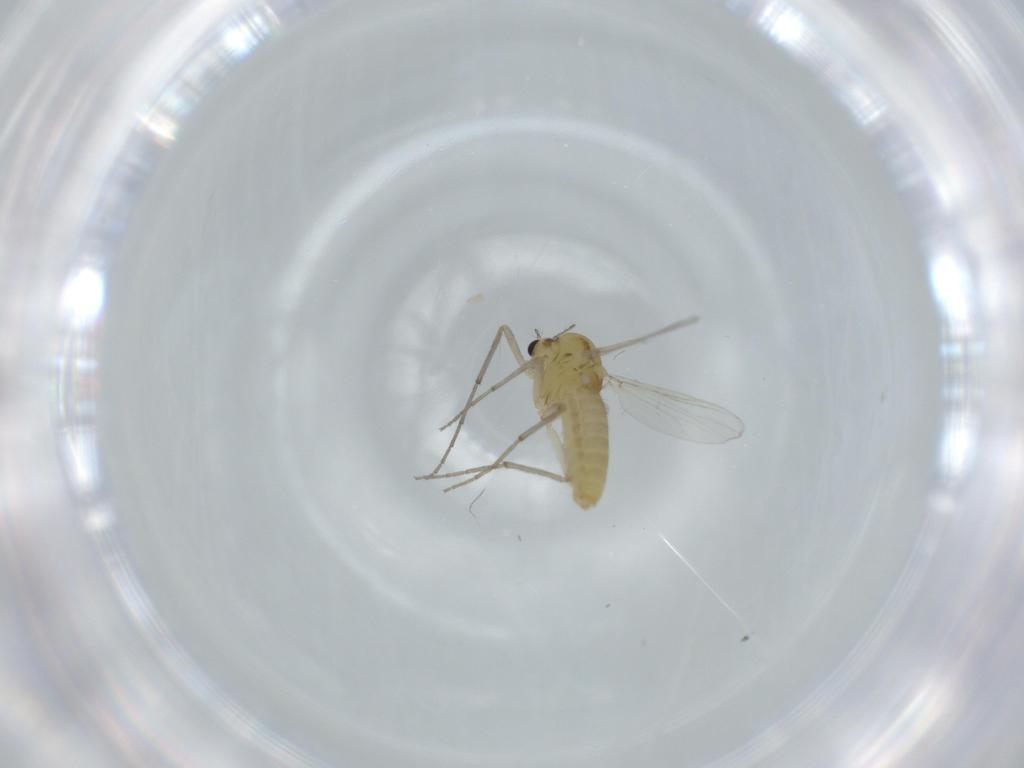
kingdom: Animalia
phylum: Arthropoda
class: Insecta
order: Diptera
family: Chironomidae
